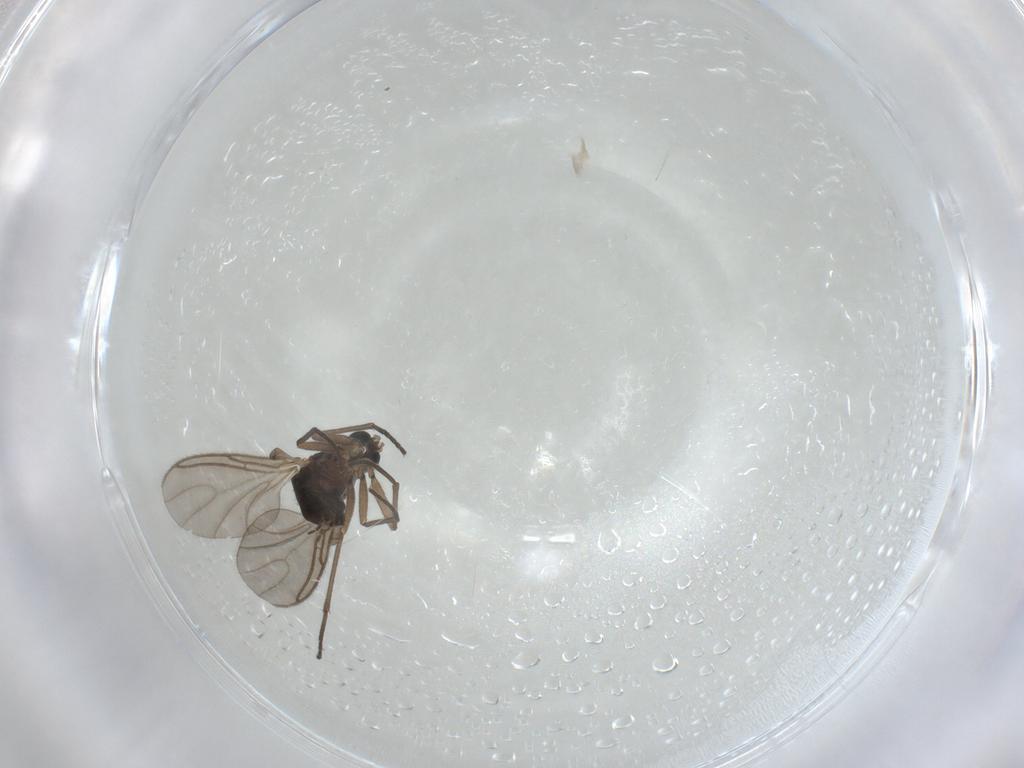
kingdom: Animalia
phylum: Arthropoda
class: Insecta
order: Diptera
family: Sciaridae
